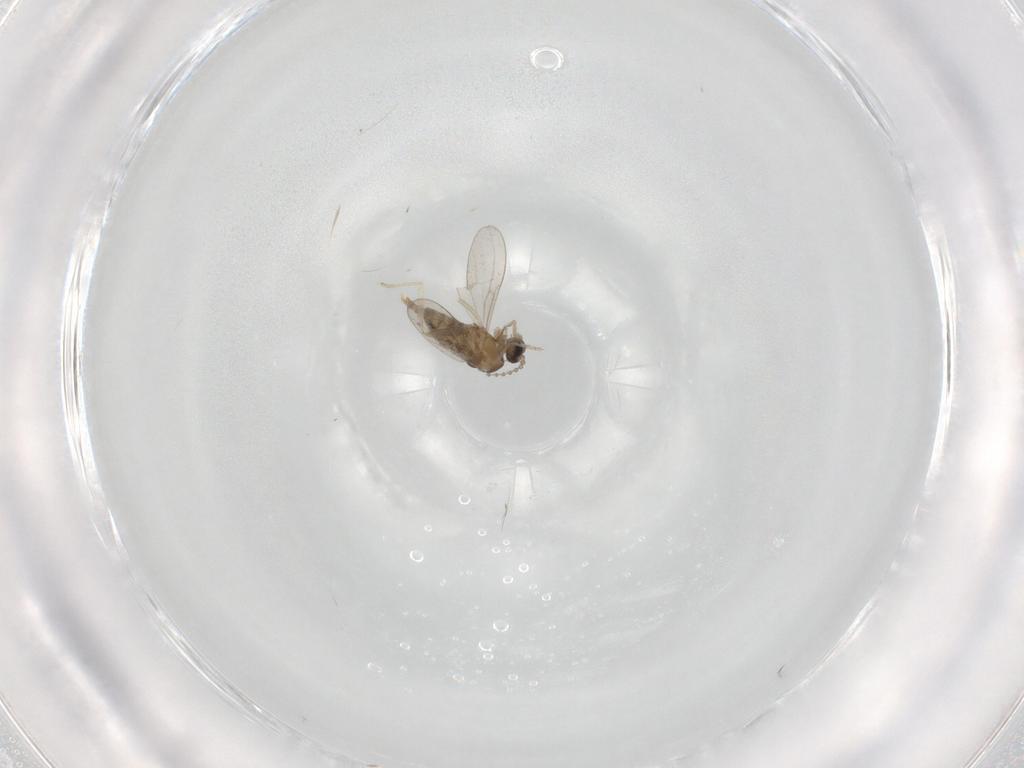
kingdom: Animalia
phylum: Arthropoda
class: Insecta
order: Diptera
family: Cecidomyiidae
